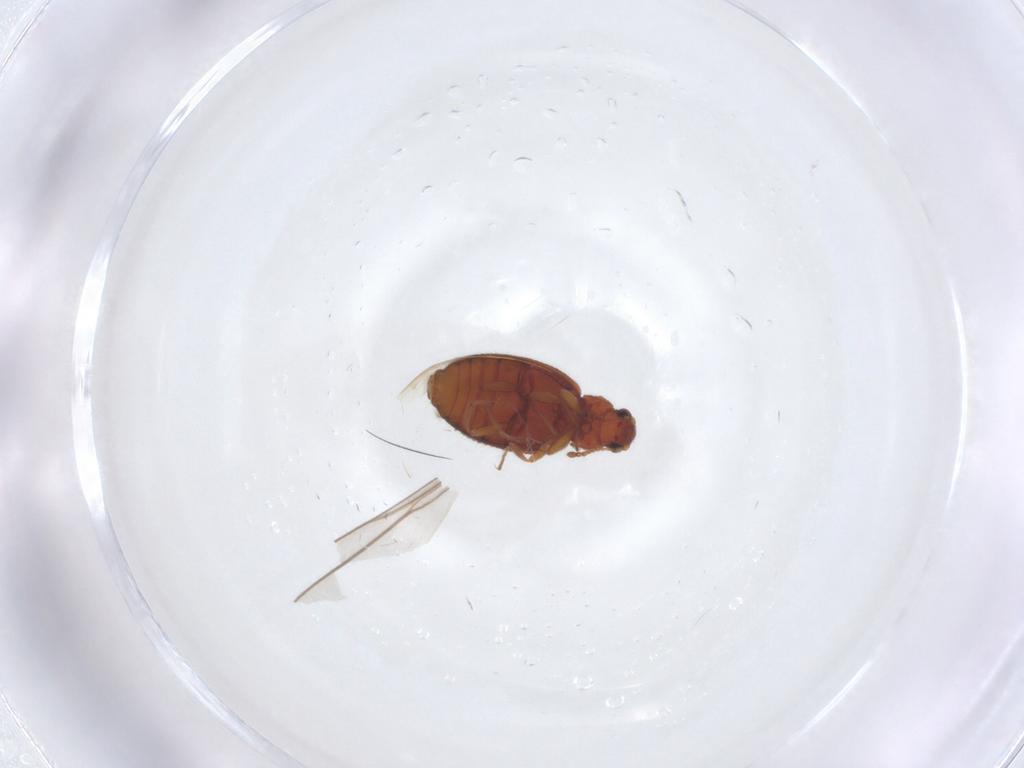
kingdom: Animalia
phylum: Arthropoda
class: Insecta
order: Coleoptera
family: Latridiidae
